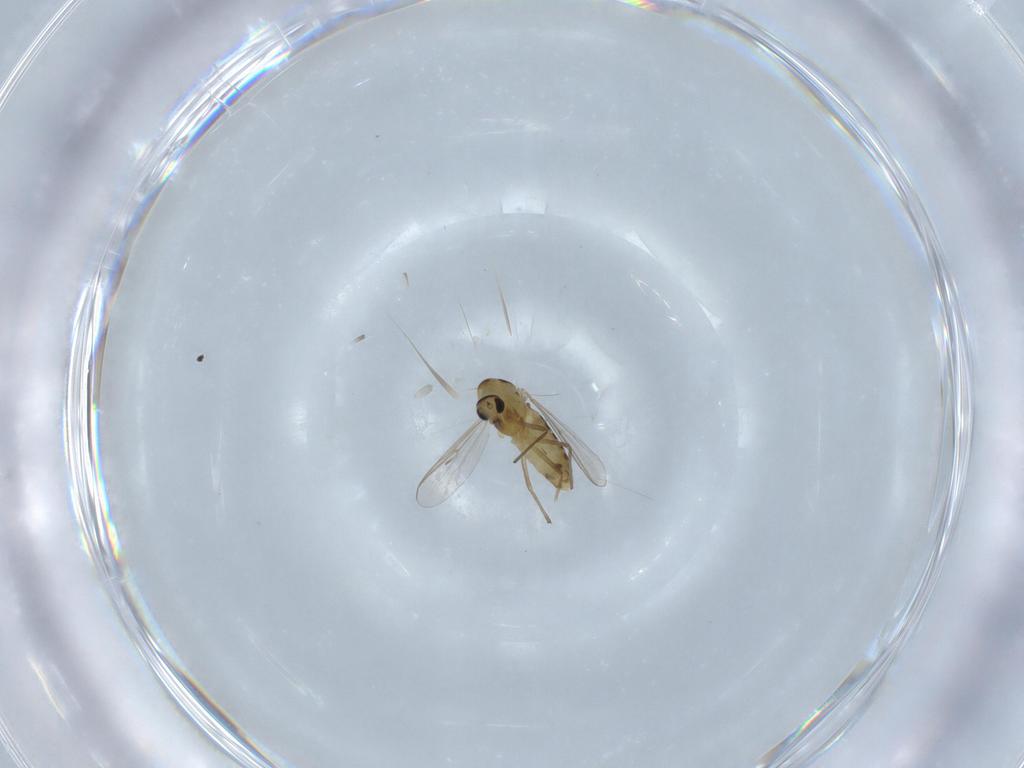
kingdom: Animalia
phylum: Arthropoda
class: Insecta
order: Diptera
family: Chironomidae
